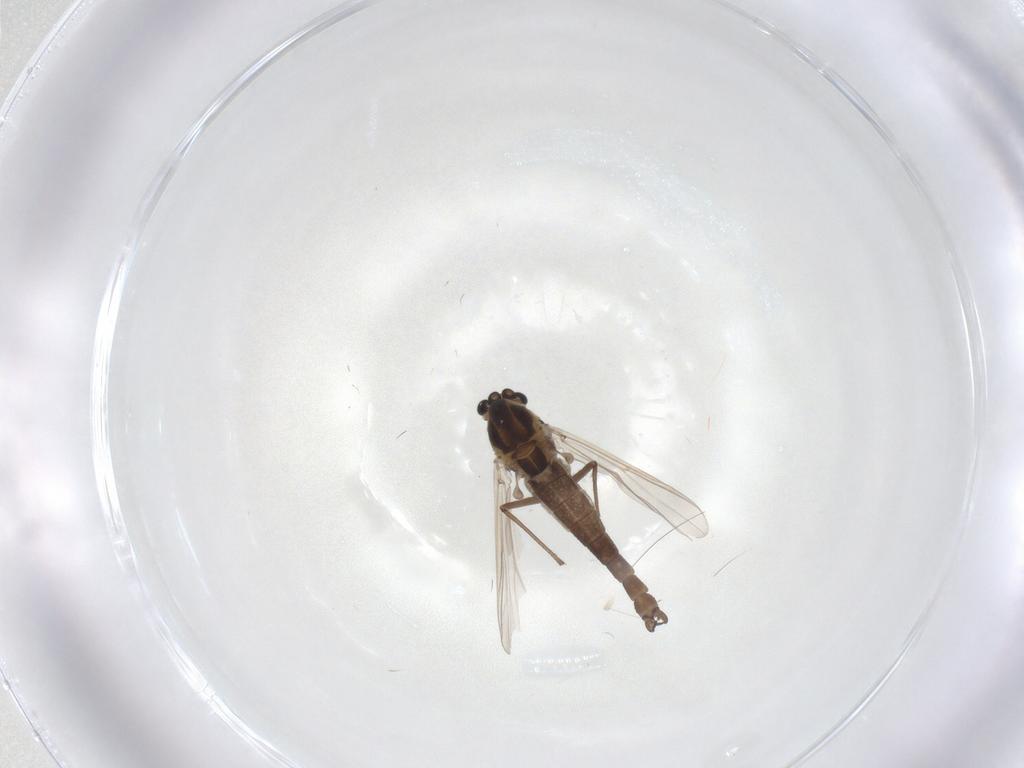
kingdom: Animalia
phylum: Arthropoda
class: Insecta
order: Diptera
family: Chironomidae
